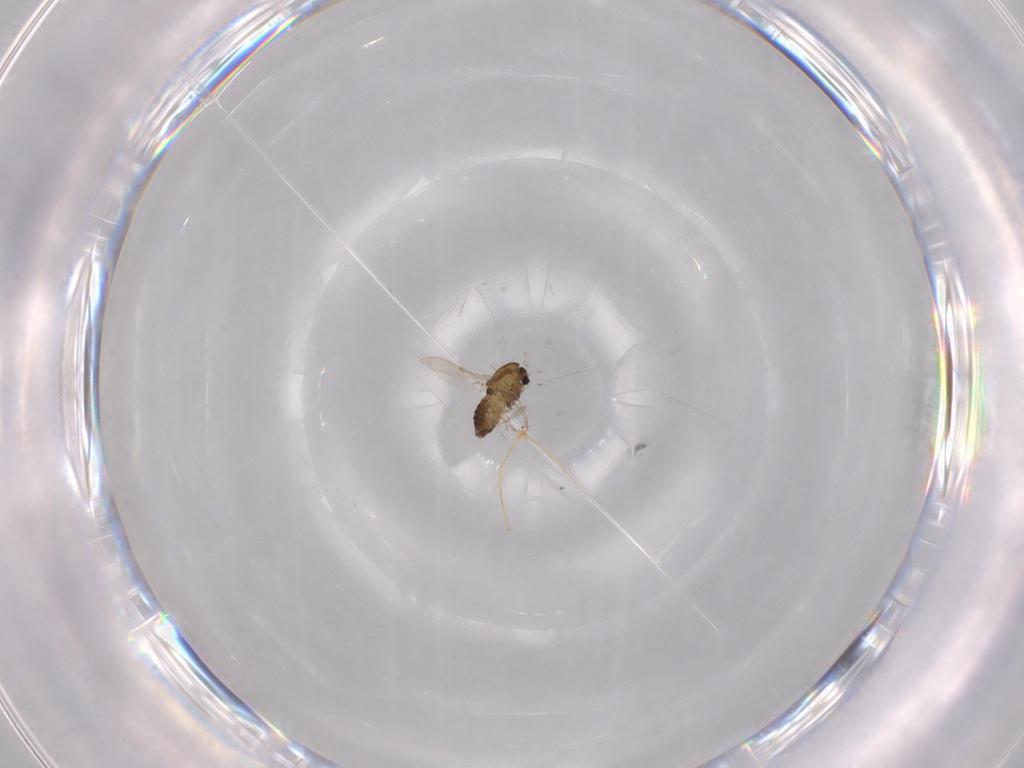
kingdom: Animalia
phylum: Arthropoda
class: Insecta
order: Diptera
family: Chironomidae
